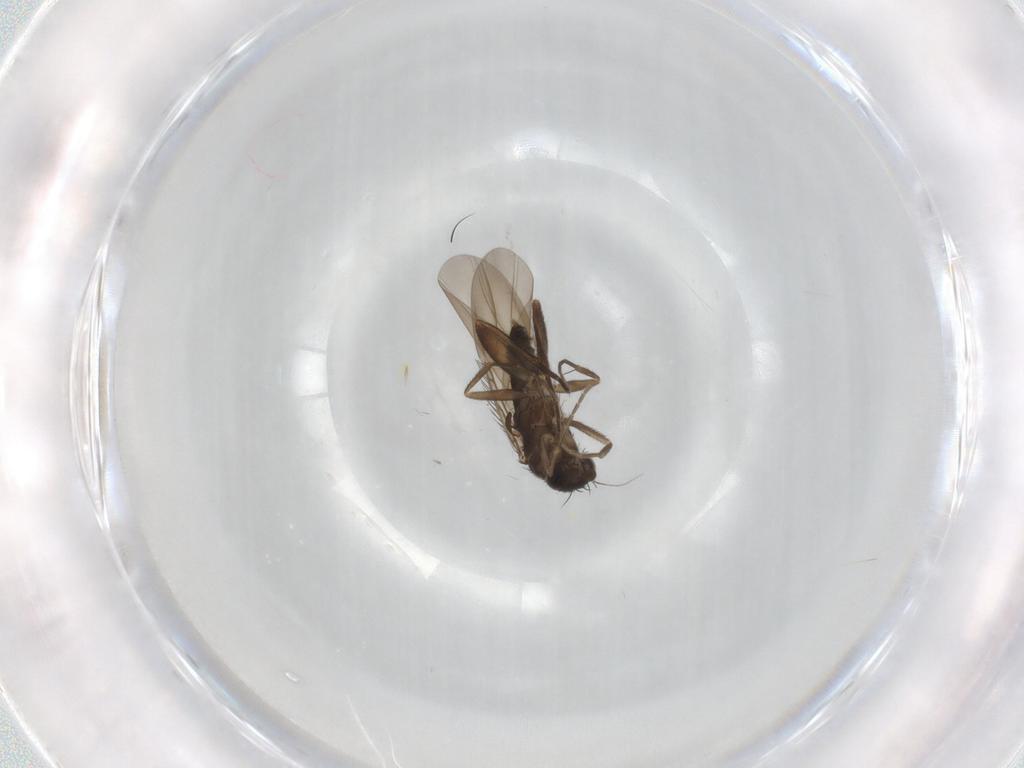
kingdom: Animalia
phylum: Arthropoda
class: Insecta
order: Diptera
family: Phoridae
